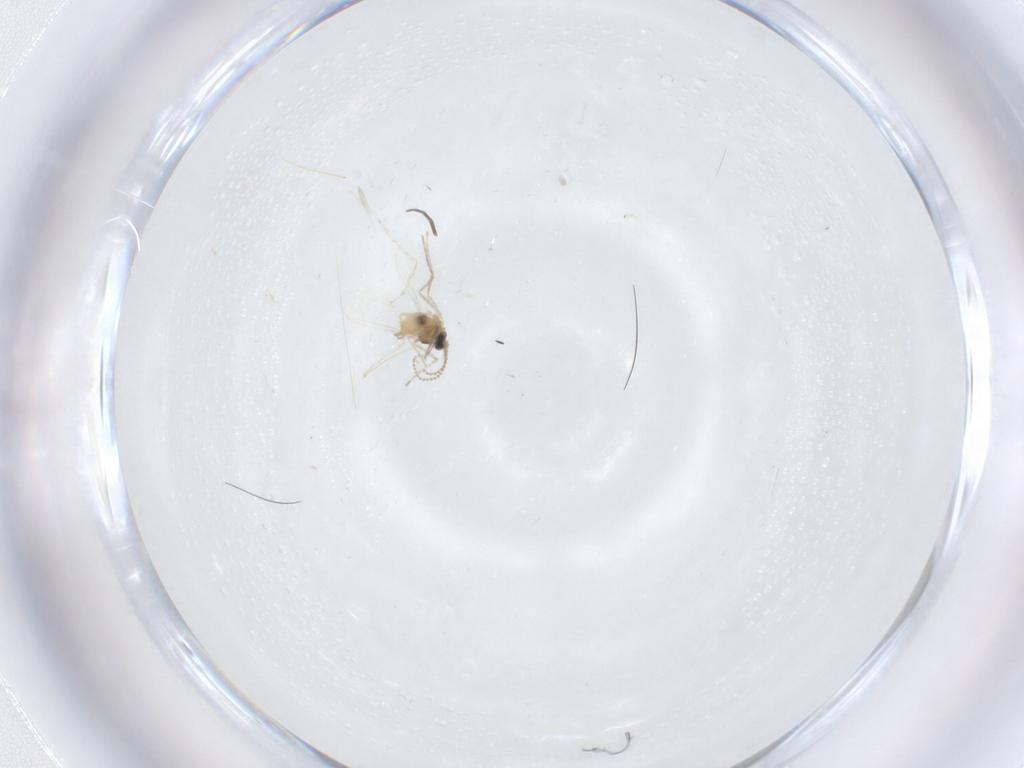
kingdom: Animalia
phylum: Arthropoda
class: Insecta
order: Diptera
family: Cecidomyiidae
